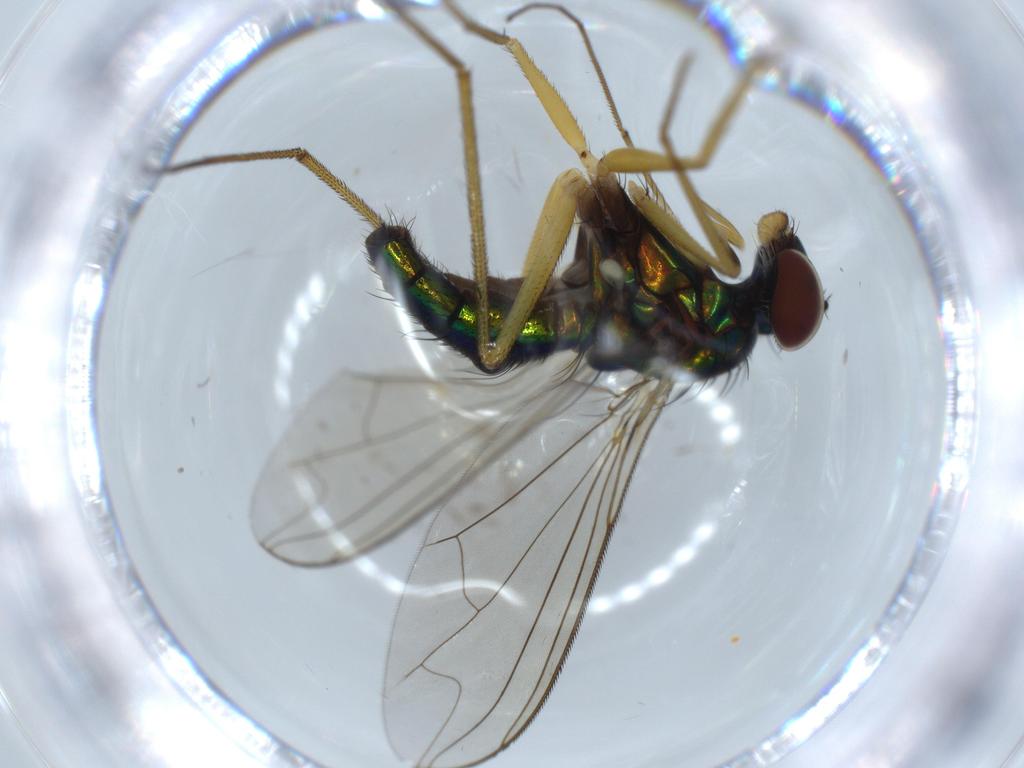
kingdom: Animalia
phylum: Arthropoda
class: Insecta
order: Diptera
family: Dolichopodidae
